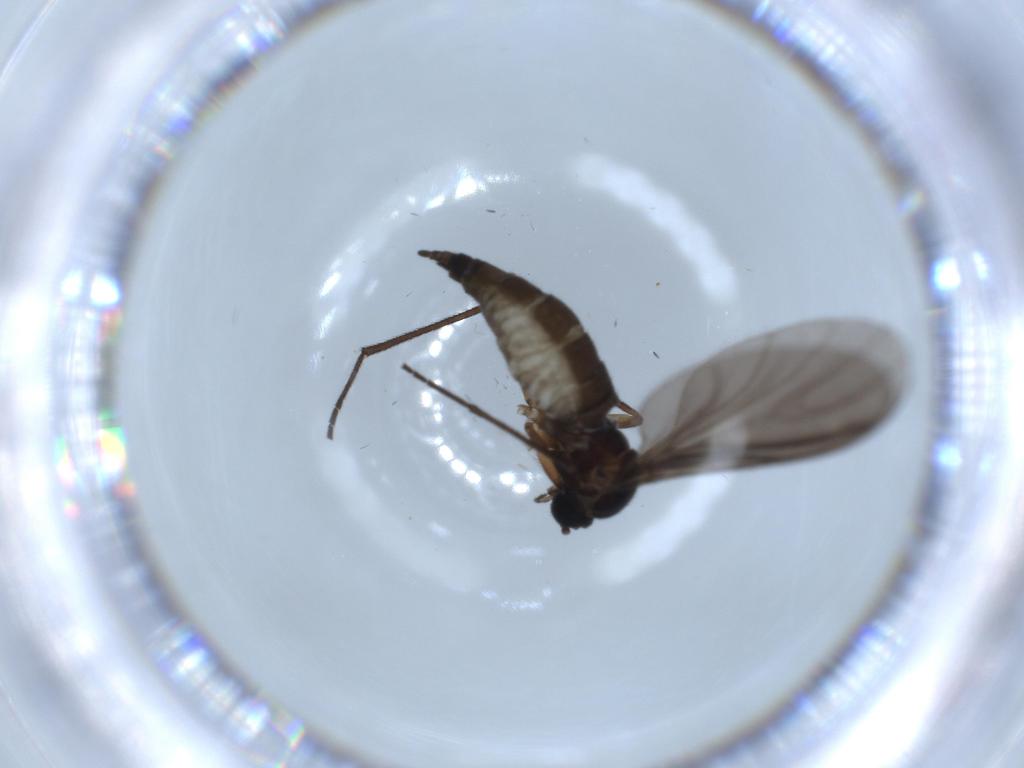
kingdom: Animalia
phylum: Arthropoda
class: Insecta
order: Diptera
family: Sciaridae
